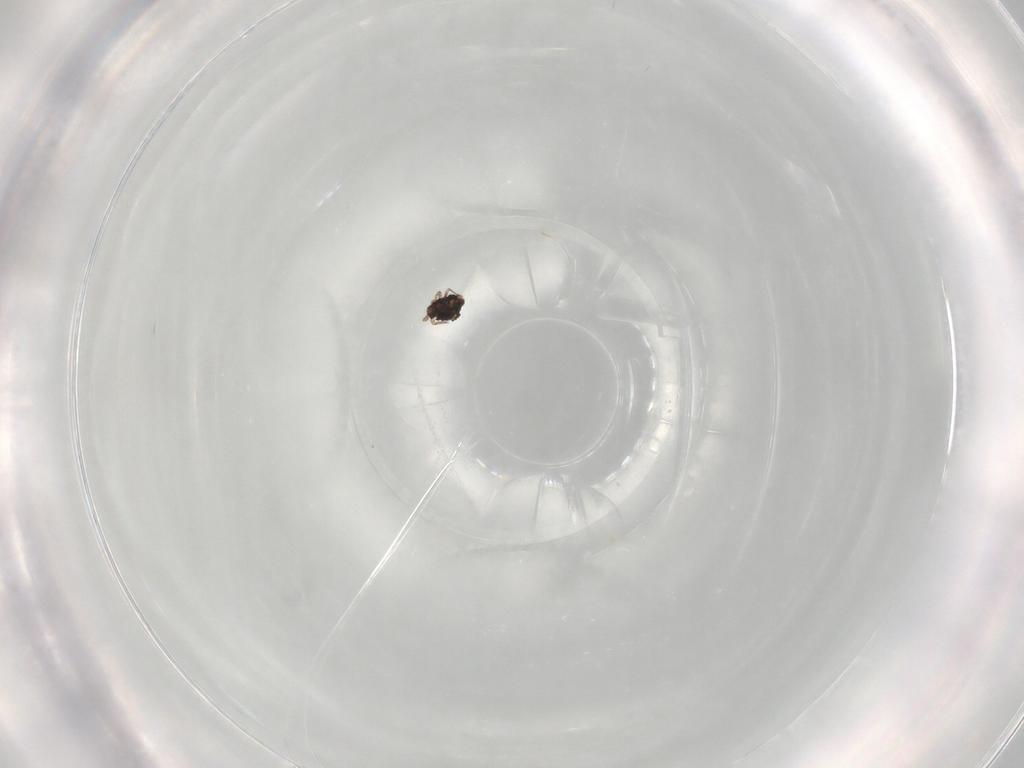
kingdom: Animalia
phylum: Arthropoda
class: Collembola
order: Symphypleona
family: Katiannidae
